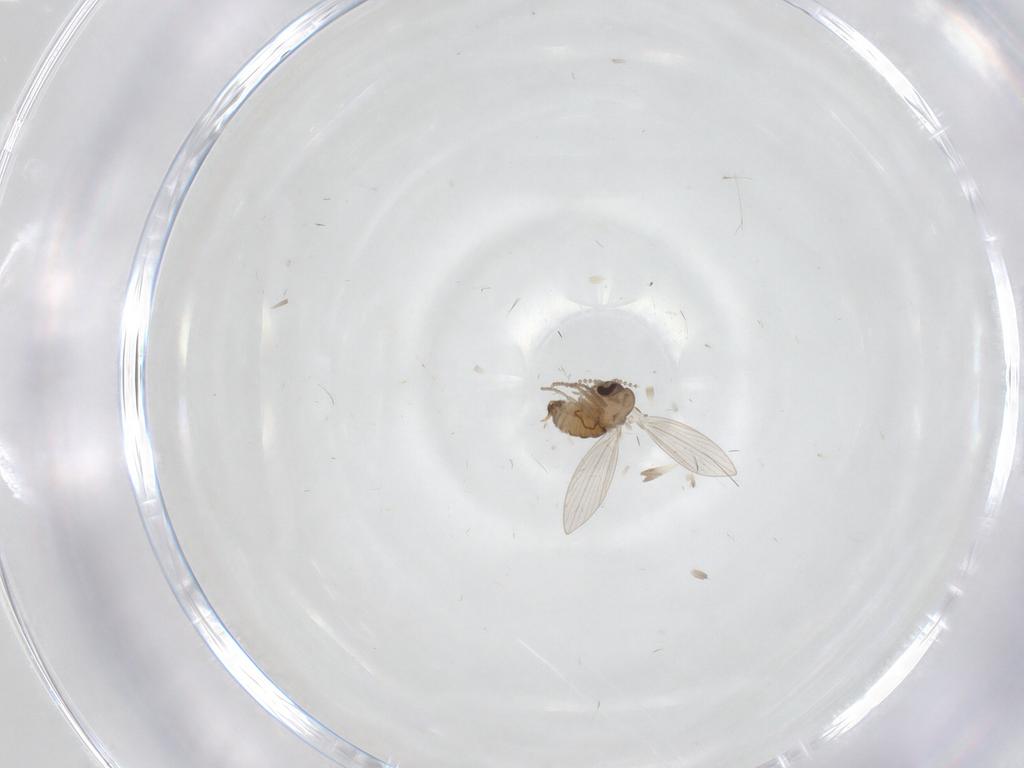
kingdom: Animalia
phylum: Arthropoda
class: Insecta
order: Diptera
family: Psychodidae
